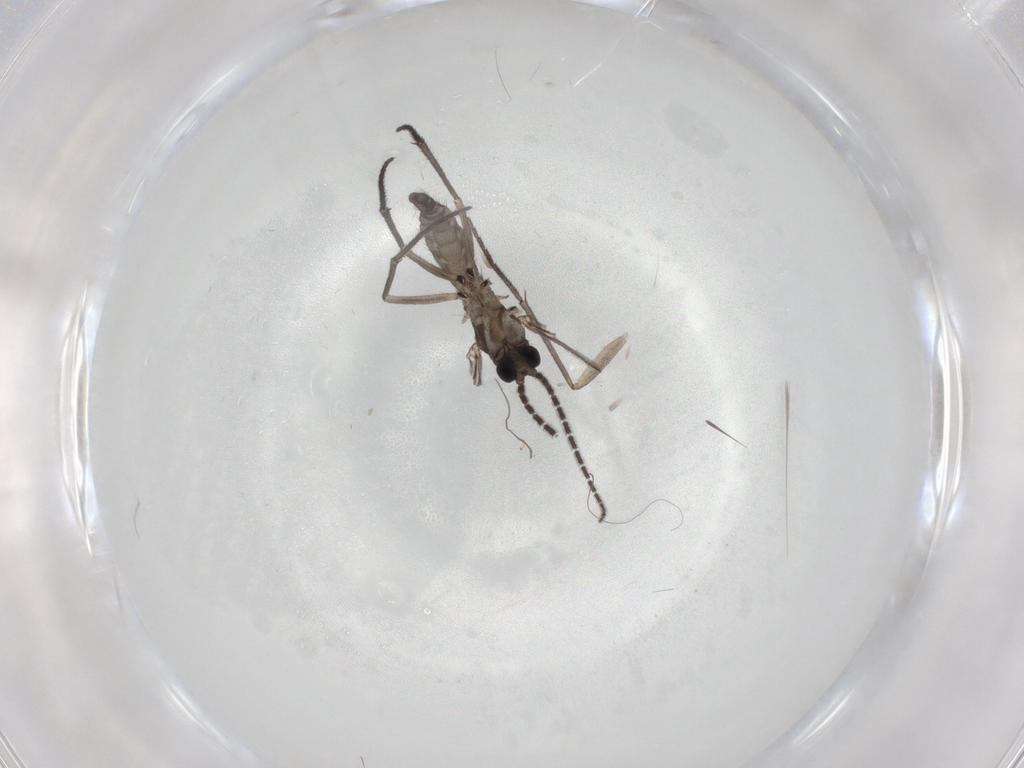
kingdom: Animalia
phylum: Arthropoda
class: Insecta
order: Diptera
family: Sciaridae
